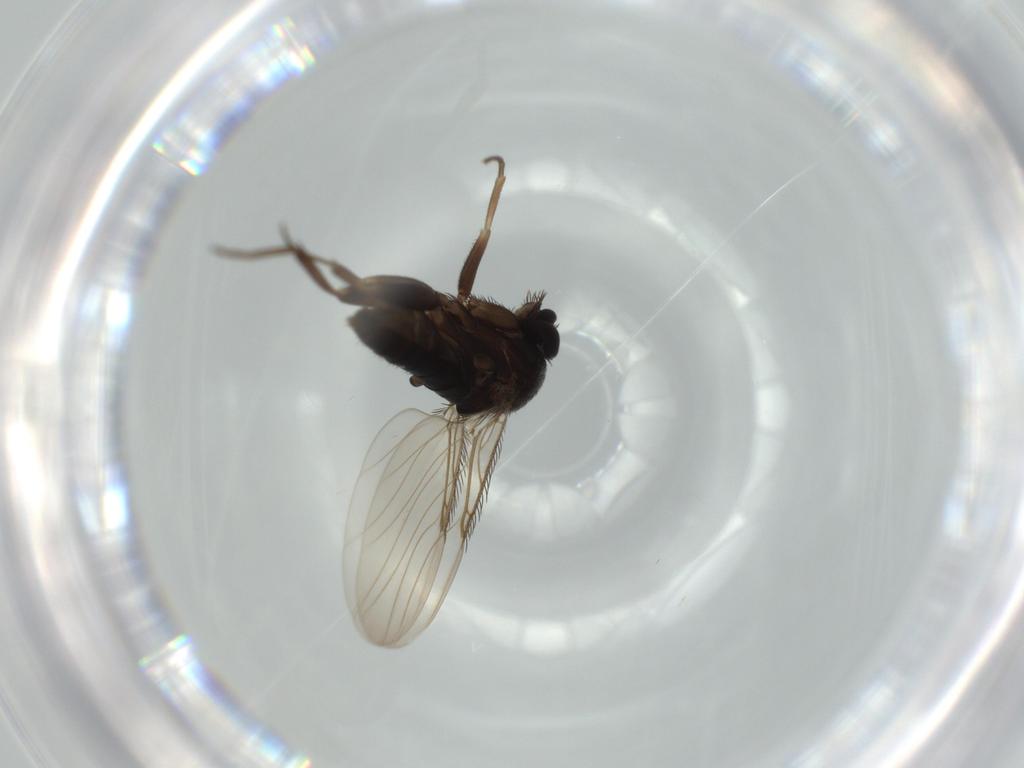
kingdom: Animalia
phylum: Arthropoda
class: Insecta
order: Diptera
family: Phoridae
